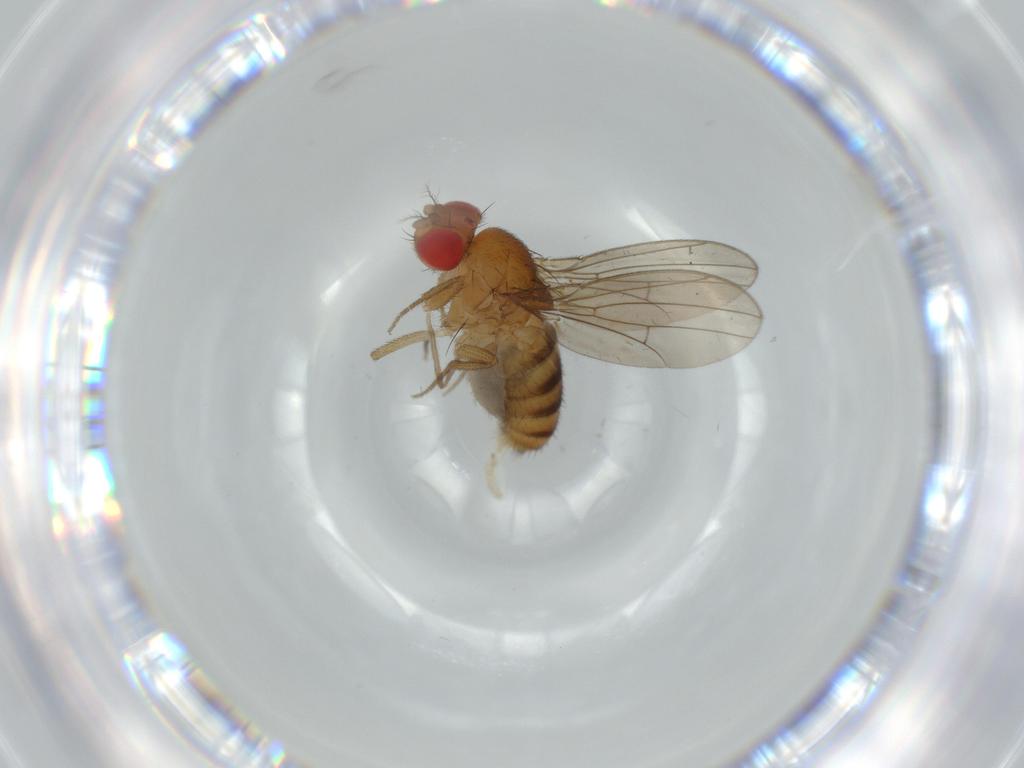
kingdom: Animalia
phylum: Arthropoda
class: Insecta
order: Diptera
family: Drosophilidae
